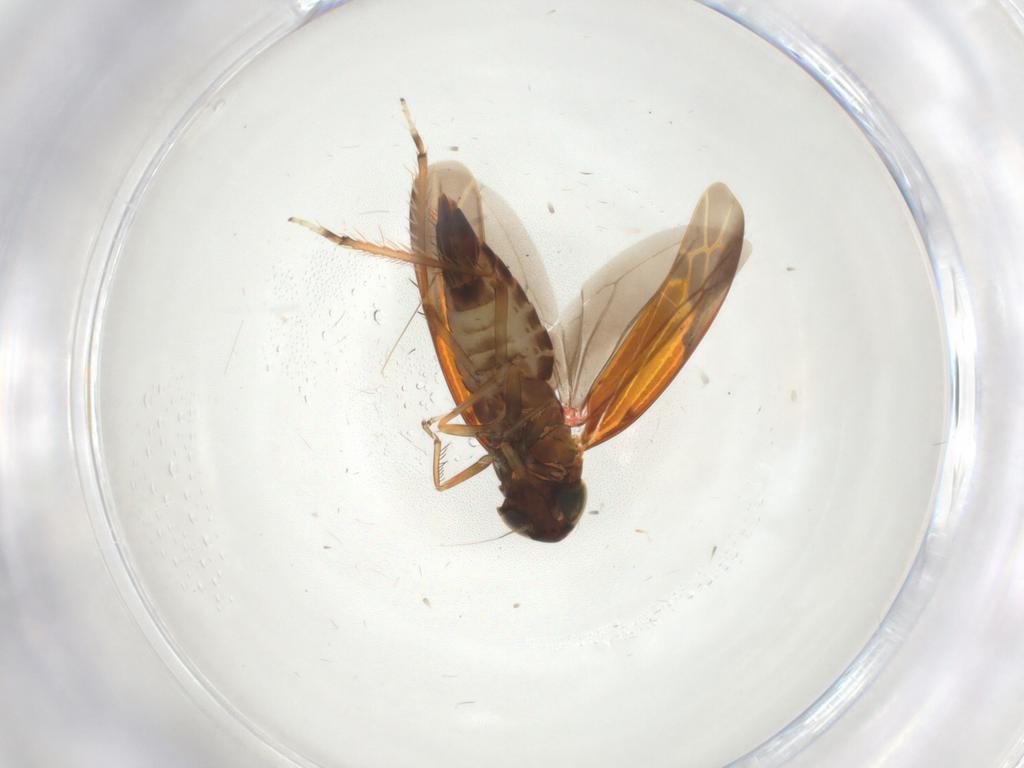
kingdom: Animalia
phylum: Arthropoda
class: Insecta
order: Hemiptera
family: Cicadellidae
